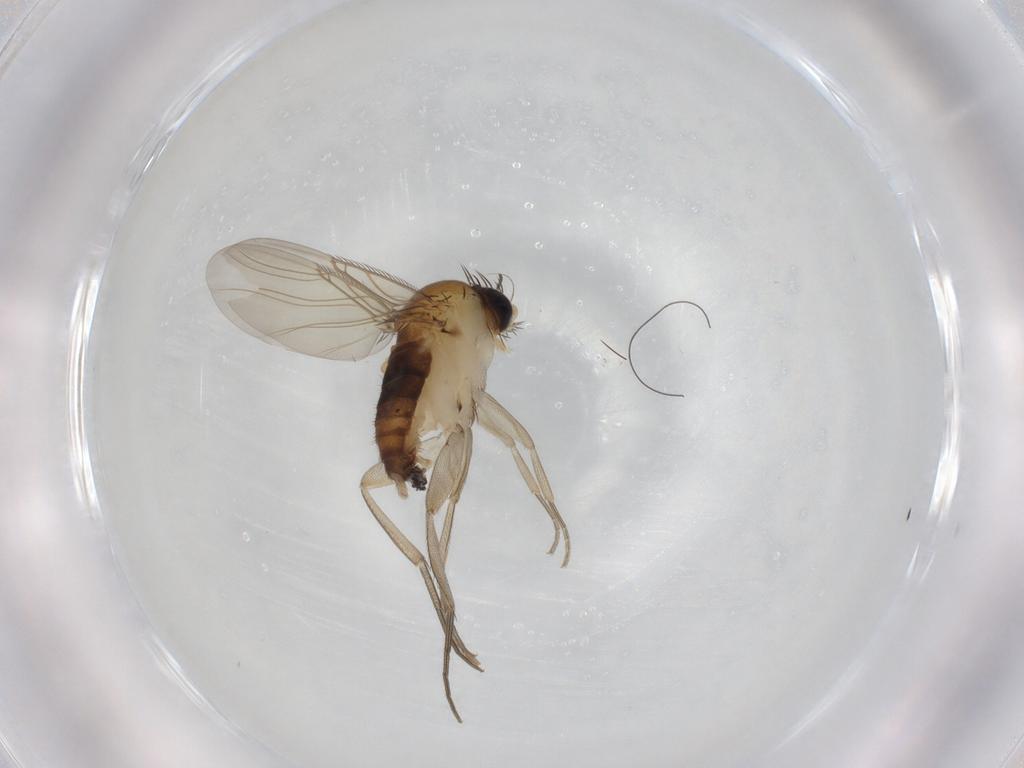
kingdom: Animalia
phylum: Arthropoda
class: Insecta
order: Diptera
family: Phoridae
